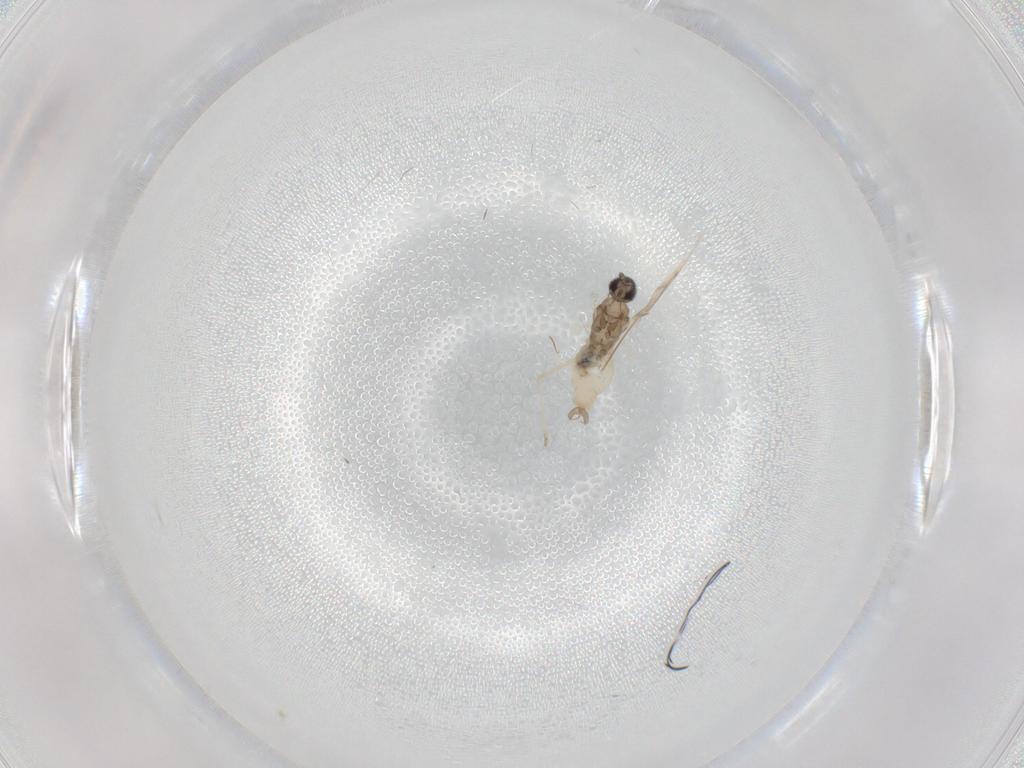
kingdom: Animalia
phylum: Arthropoda
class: Insecta
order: Diptera
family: Cecidomyiidae
